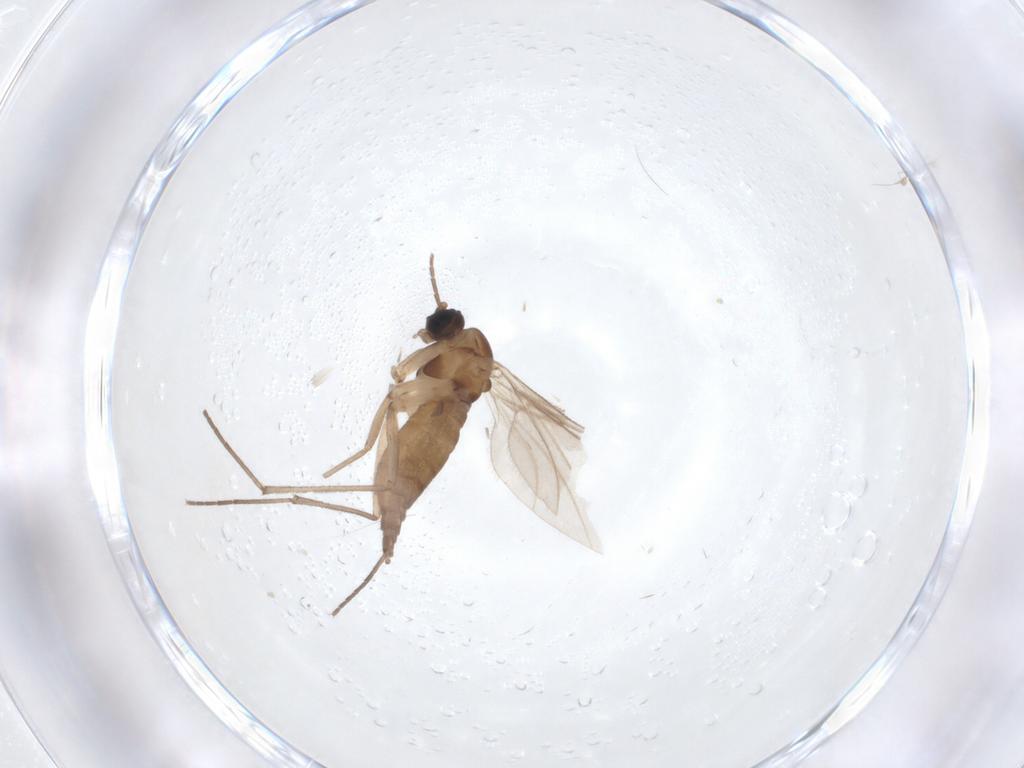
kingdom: Animalia
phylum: Arthropoda
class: Insecta
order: Diptera
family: Sciaridae
